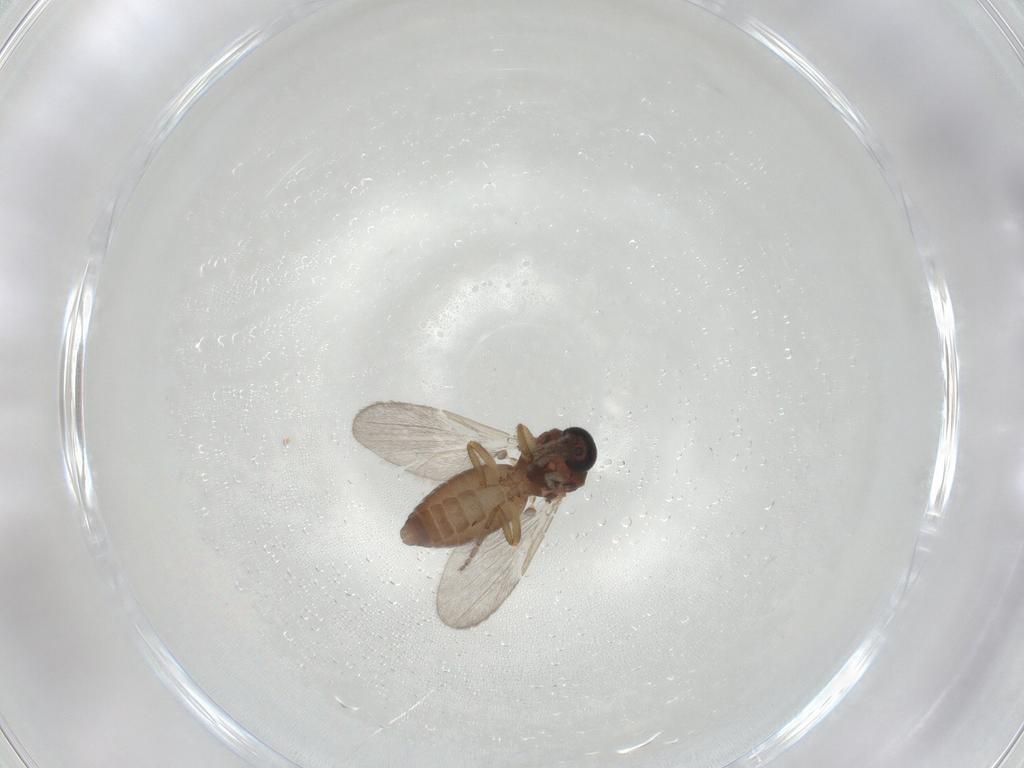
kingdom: Animalia
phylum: Arthropoda
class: Insecta
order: Diptera
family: Ceratopogonidae
